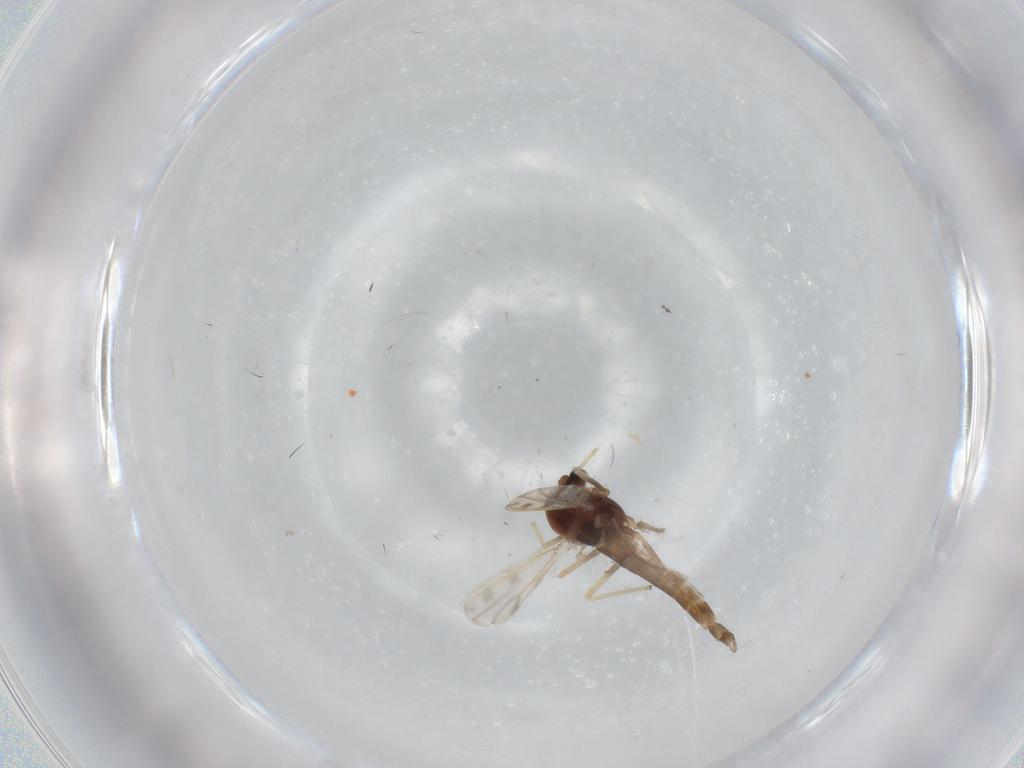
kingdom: Animalia
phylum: Arthropoda
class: Insecta
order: Diptera
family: Chironomidae
